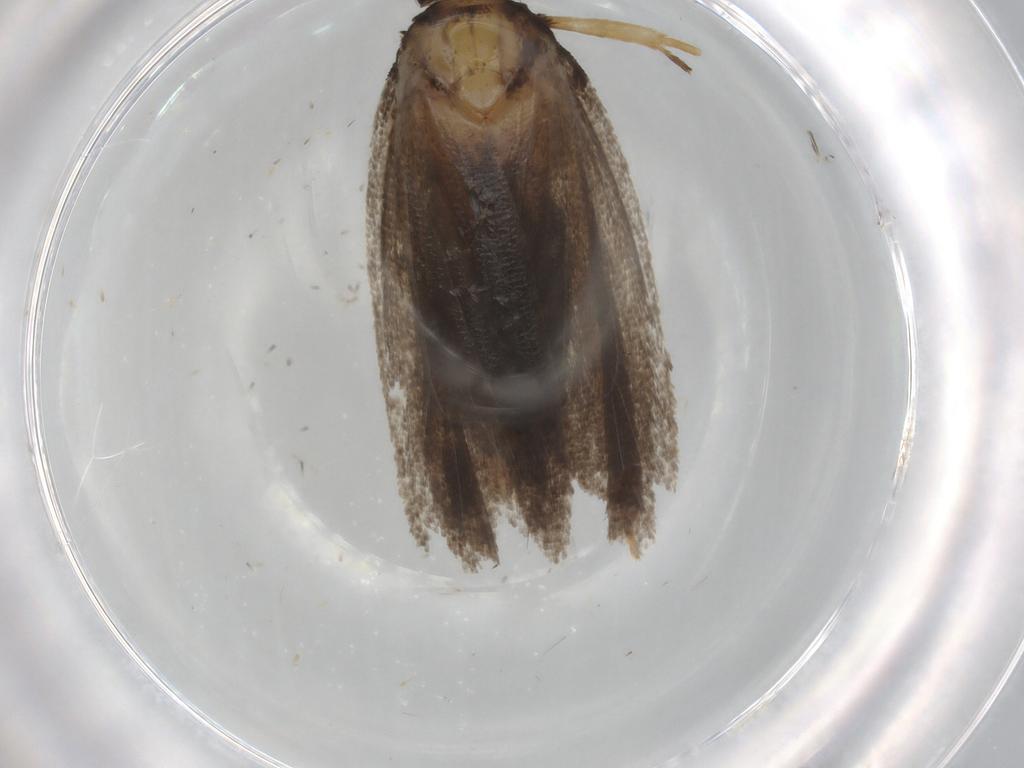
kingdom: Animalia
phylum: Arthropoda
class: Insecta
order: Lepidoptera
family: Lecithoceridae
